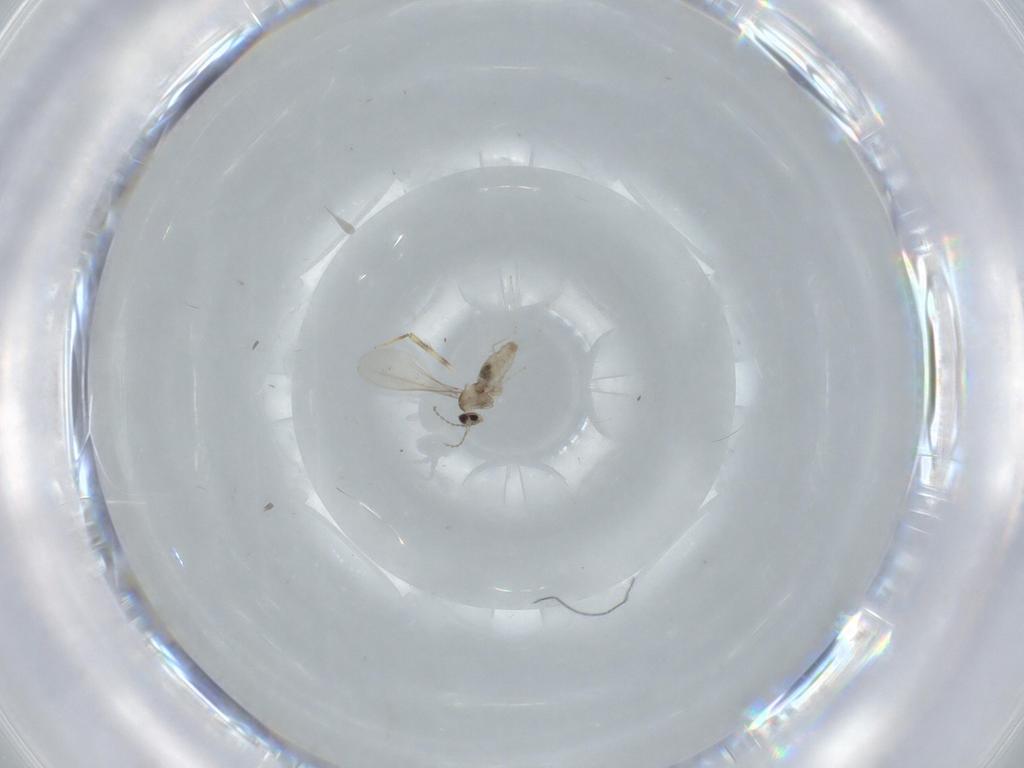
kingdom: Animalia
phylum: Arthropoda
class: Insecta
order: Diptera
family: Cecidomyiidae
